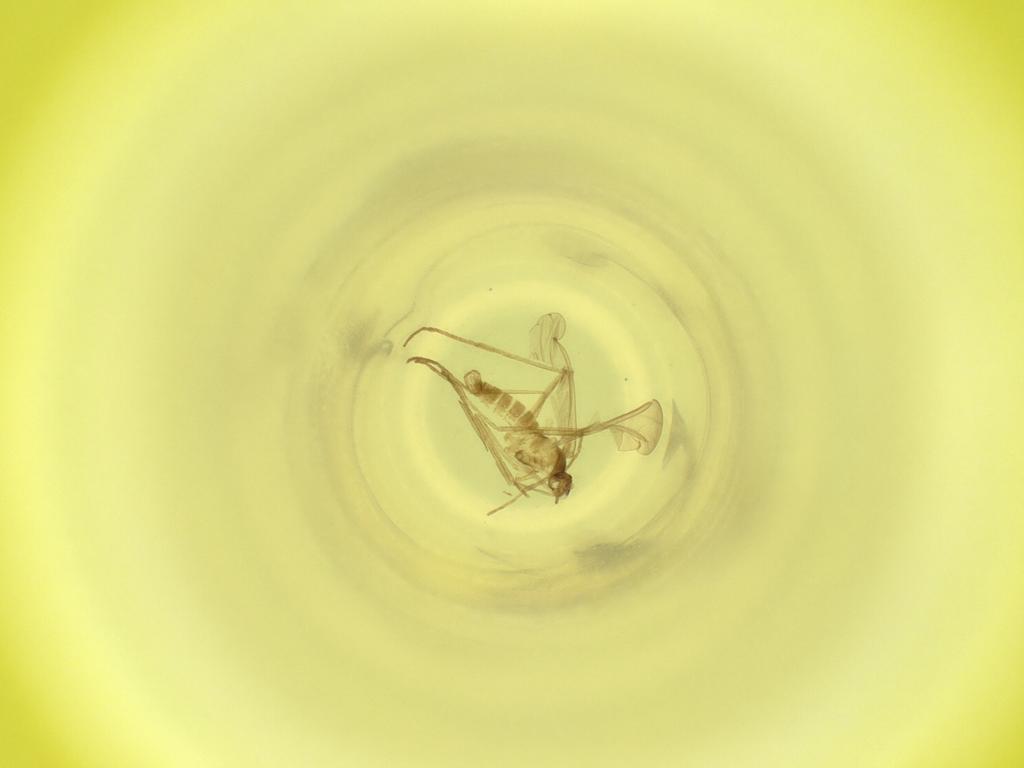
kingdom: Animalia
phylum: Arthropoda
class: Insecta
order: Diptera
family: Cecidomyiidae
